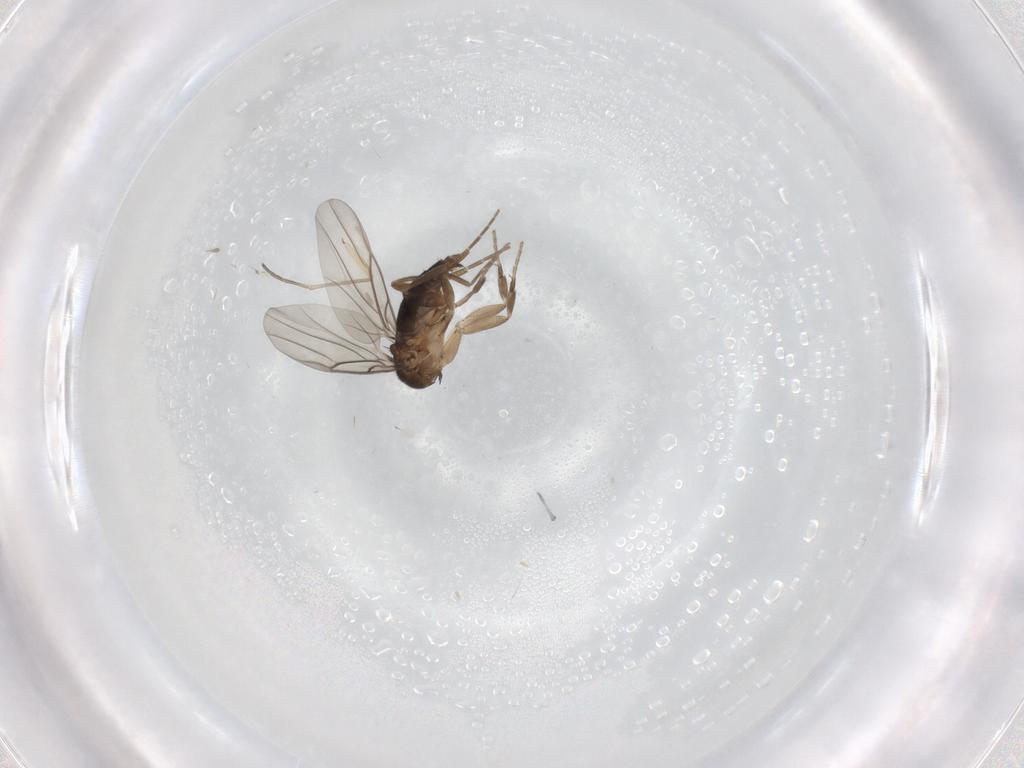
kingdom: Animalia
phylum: Arthropoda
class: Insecta
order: Diptera
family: Phoridae
